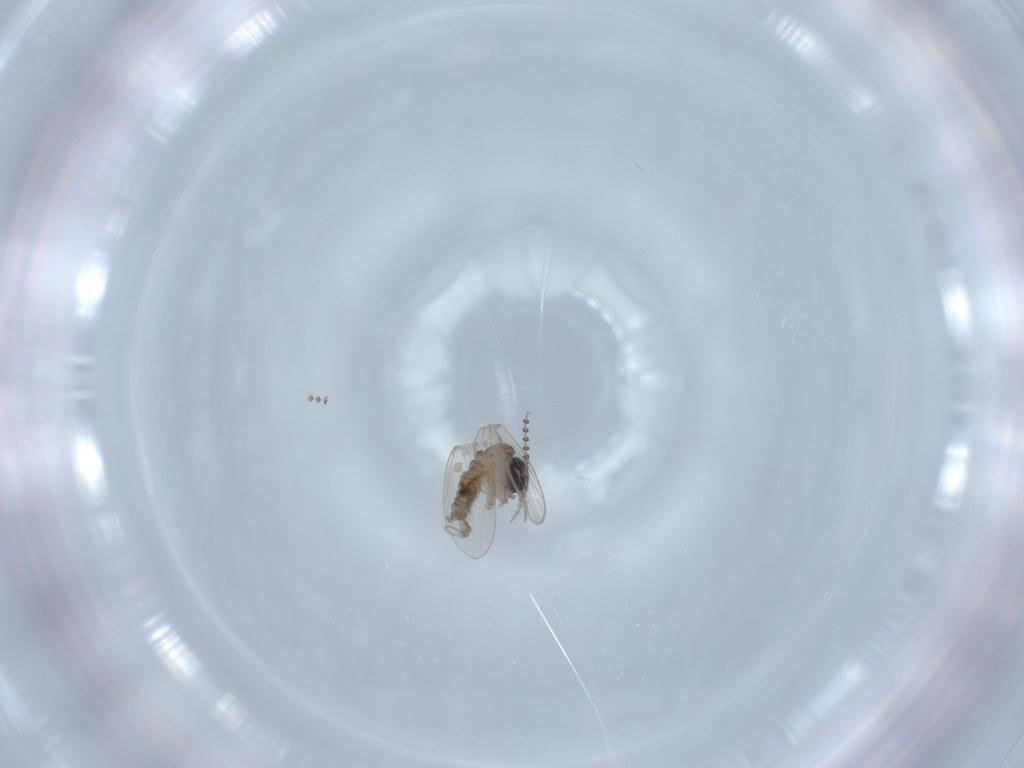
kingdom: Animalia
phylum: Arthropoda
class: Insecta
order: Diptera
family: Psychodidae
